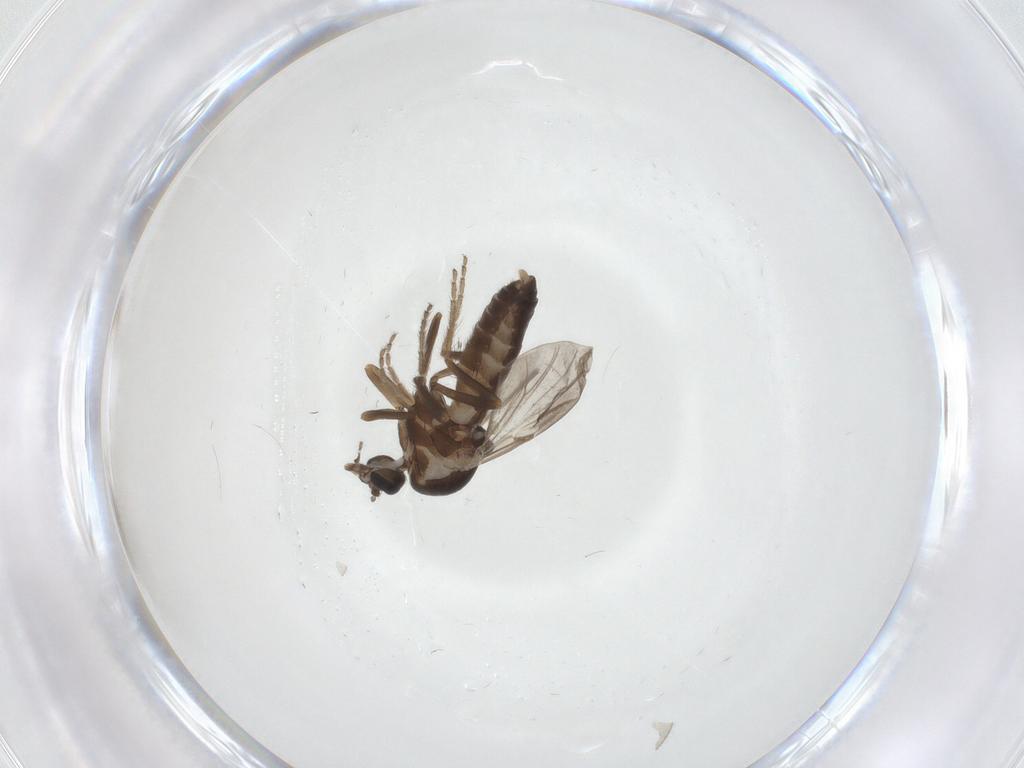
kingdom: Animalia
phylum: Arthropoda
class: Insecta
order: Diptera
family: Ceratopogonidae
